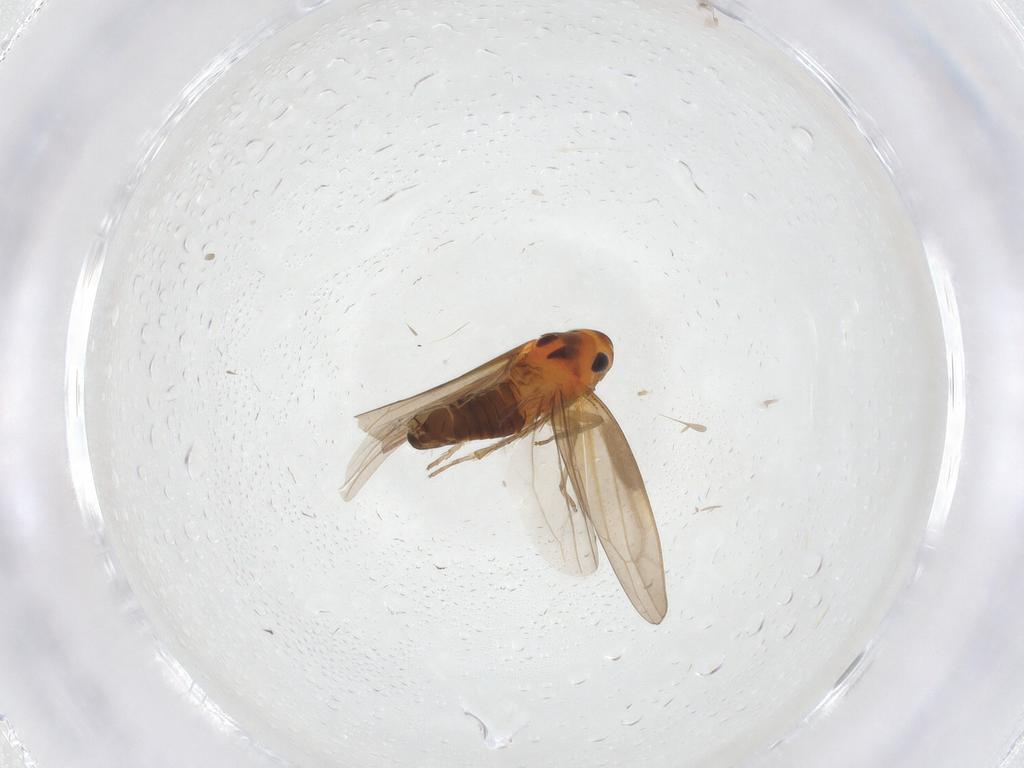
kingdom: Animalia
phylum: Arthropoda
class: Insecta
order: Hemiptera
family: Cicadellidae
